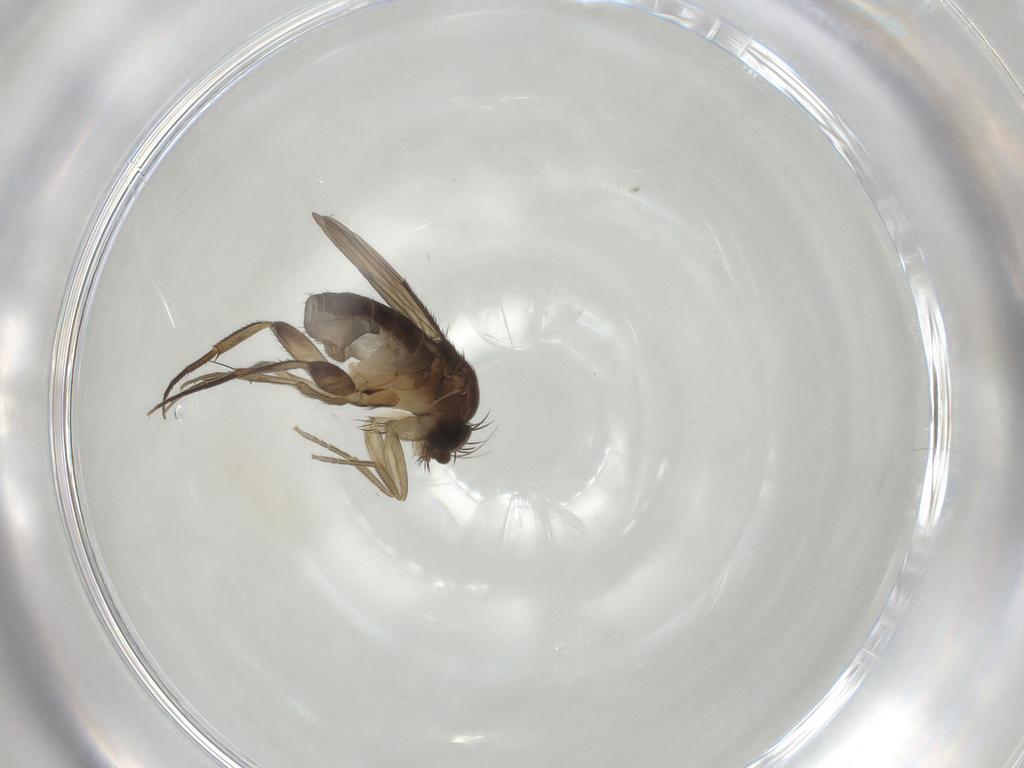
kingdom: Animalia
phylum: Arthropoda
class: Insecta
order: Diptera
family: Phoridae
